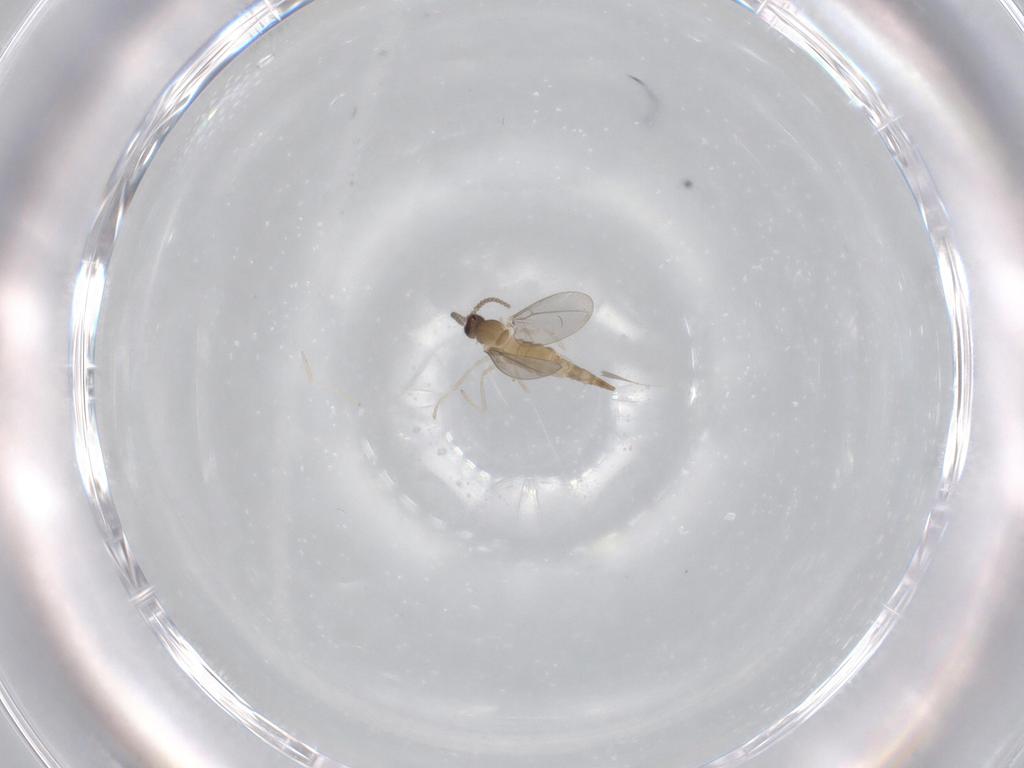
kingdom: Animalia
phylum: Arthropoda
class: Insecta
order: Diptera
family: Cecidomyiidae
